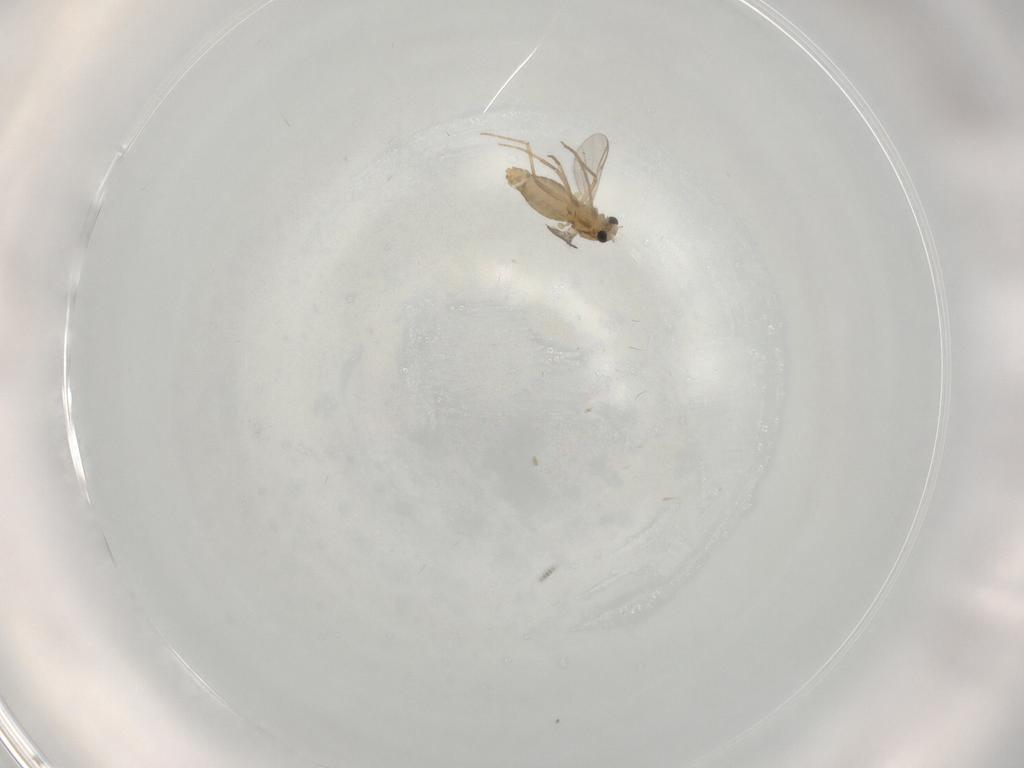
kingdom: Animalia
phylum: Arthropoda
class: Insecta
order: Diptera
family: Chironomidae
